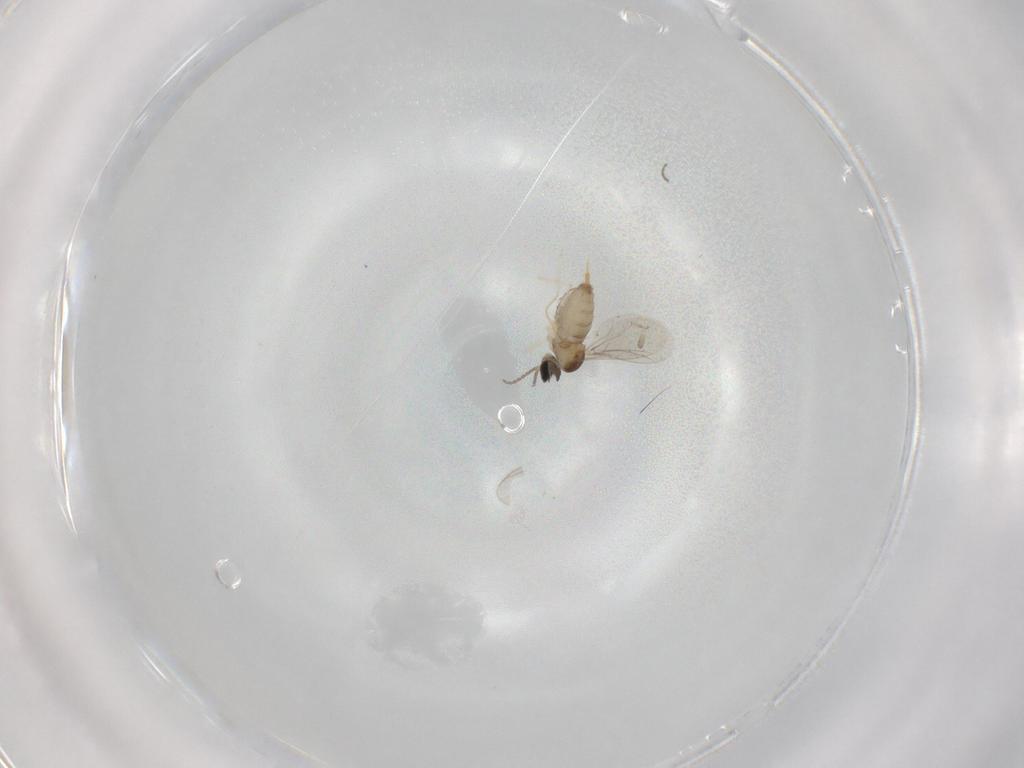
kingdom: Animalia
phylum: Arthropoda
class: Insecta
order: Diptera
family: Cecidomyiidae
